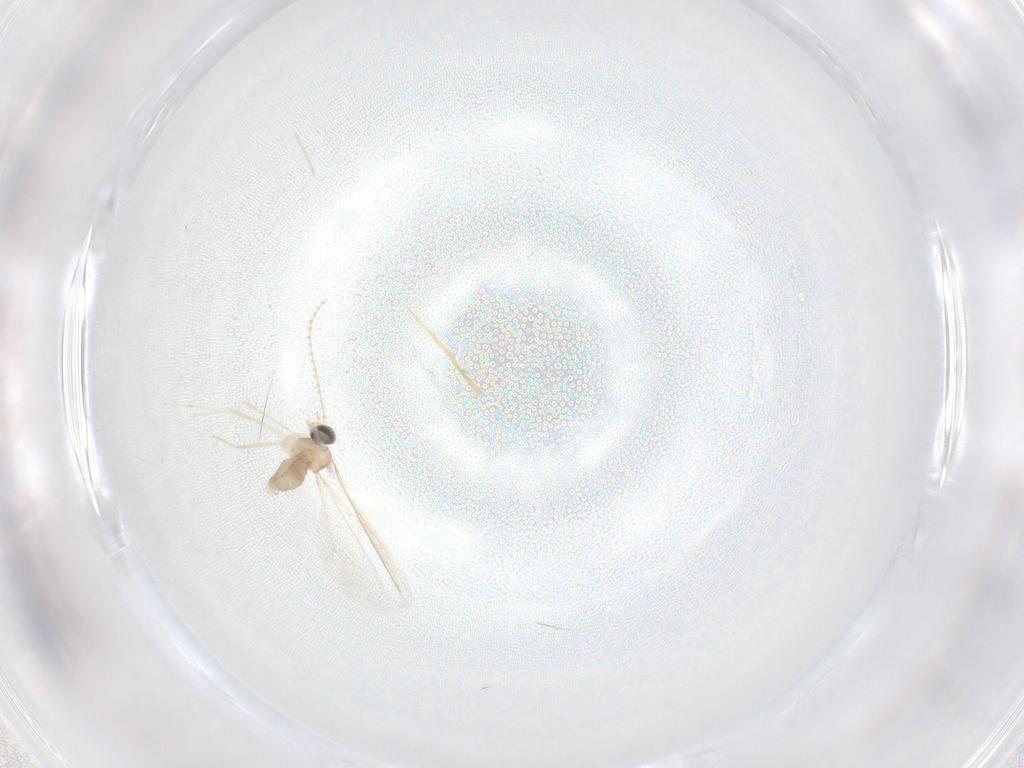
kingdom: Animalia
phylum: Arthropoda
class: Insecta
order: Diptera
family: Cecidomyiidae
